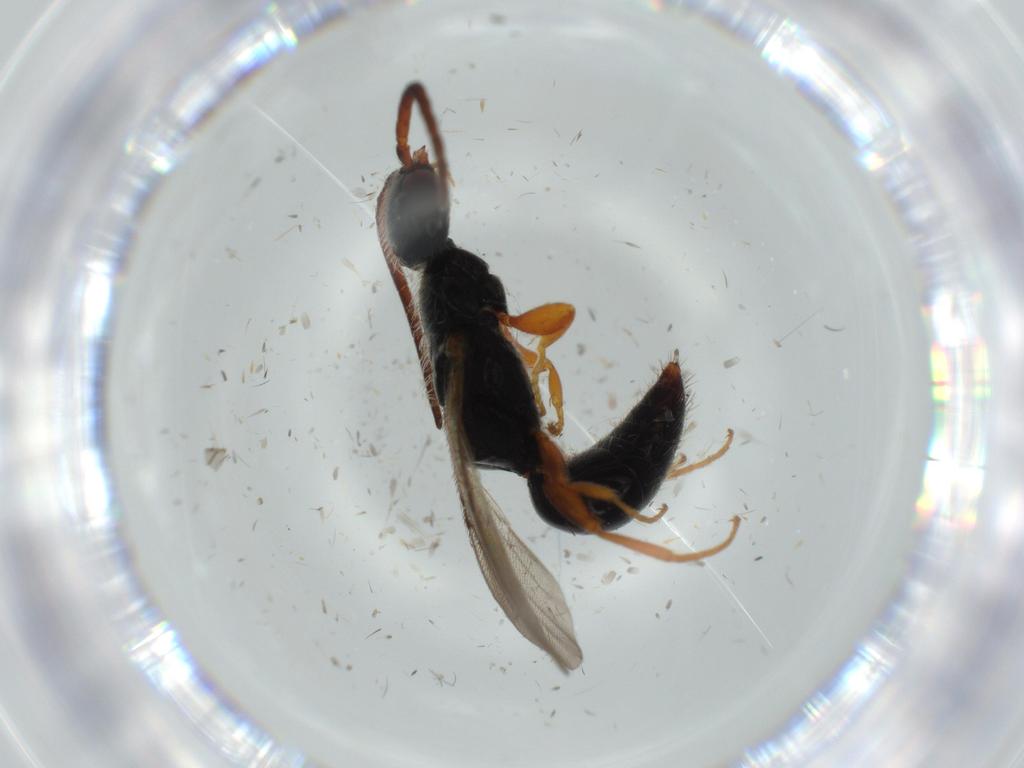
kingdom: Animalia
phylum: Arthropoda
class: Insecta
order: Hymenoptera
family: Bethylidae
